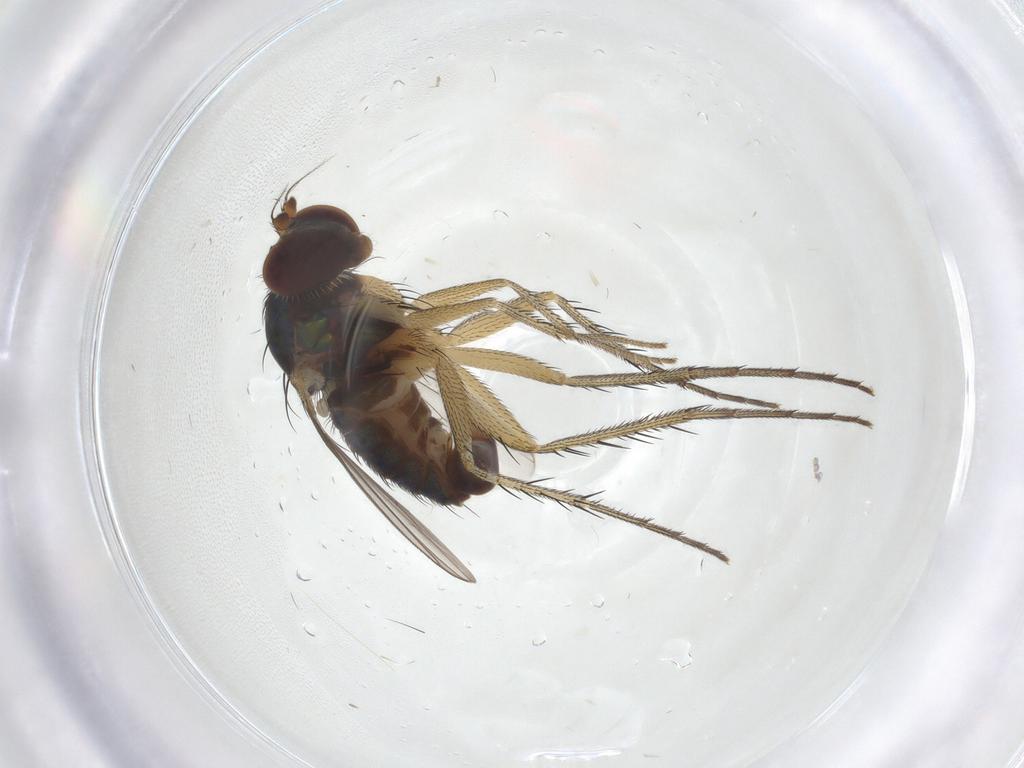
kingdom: Animalia
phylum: Arthropoda
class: Insecta
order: Diptera
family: Dolichopodidae
